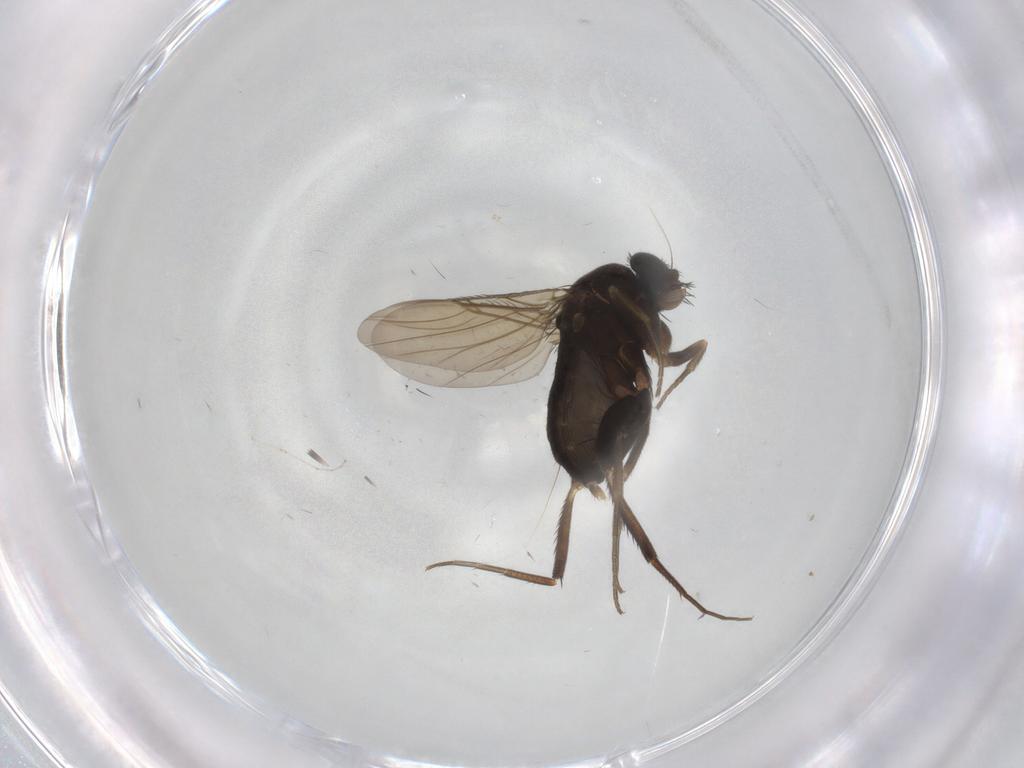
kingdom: Animalia
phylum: Arthropoda
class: Insecta
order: Diptera
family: Phoridae
